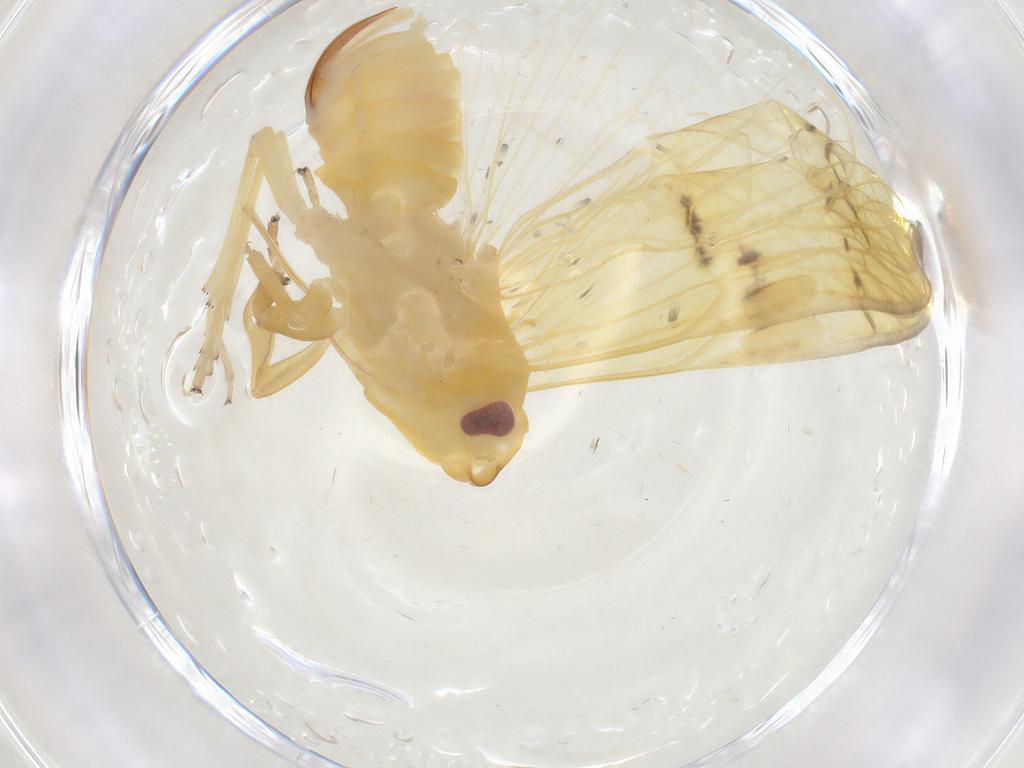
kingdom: Animalia
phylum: Arthropoda
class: Insecta
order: Hemiptera
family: Cixiidae
